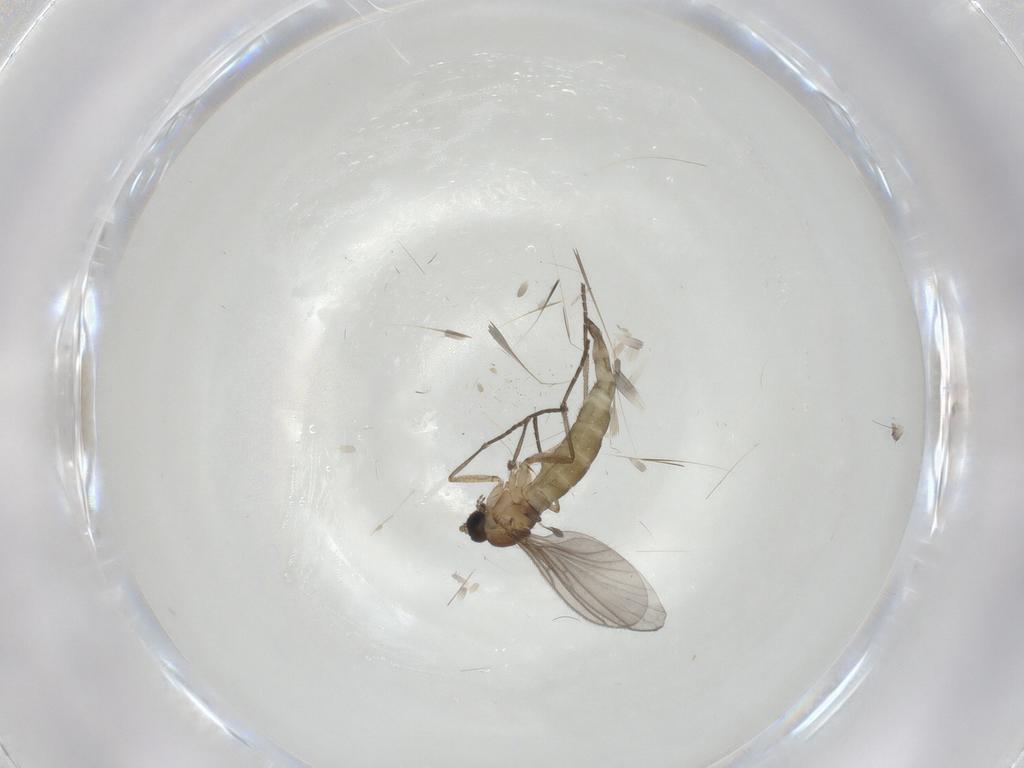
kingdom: Animalia
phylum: Arthropoda
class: Insecta
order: Diptera
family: Sciaridae
